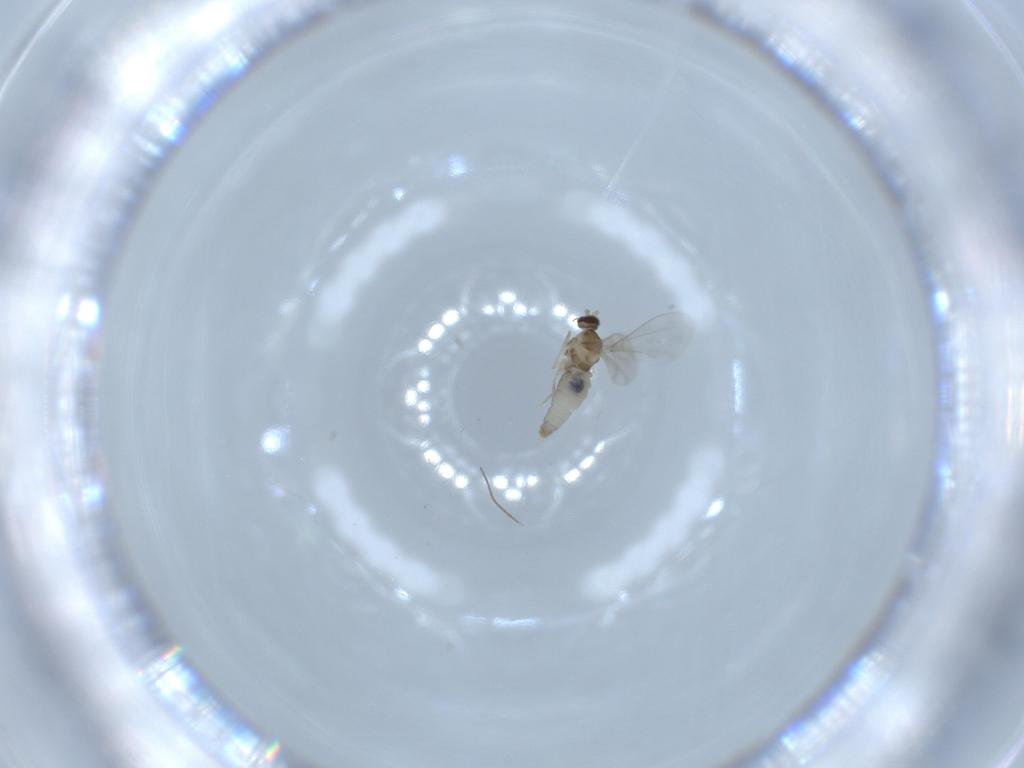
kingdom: Animalia
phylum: Arthropoda
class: Insecta
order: Diptera
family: Cecidomyiidae
